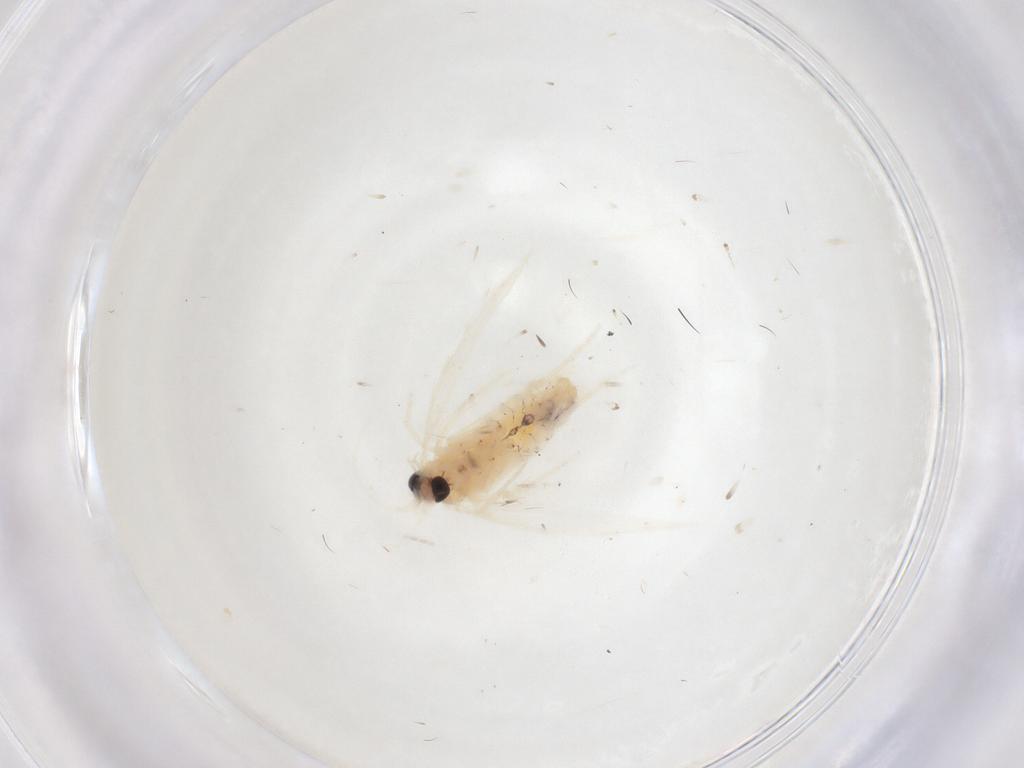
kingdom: Animalia
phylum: Arthropoda
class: Insecta
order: Lepidoptera
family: Nepticulidae
